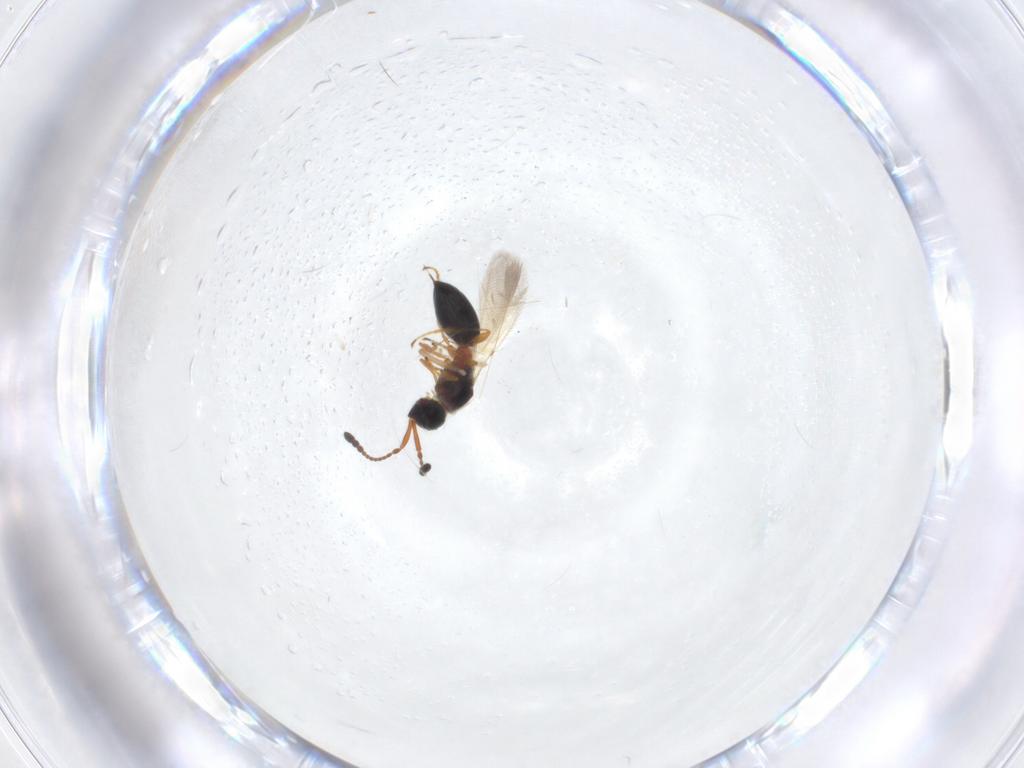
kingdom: Animalia
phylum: Arthropoda
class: Insecta
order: Hymenoptera
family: Diapriidae
